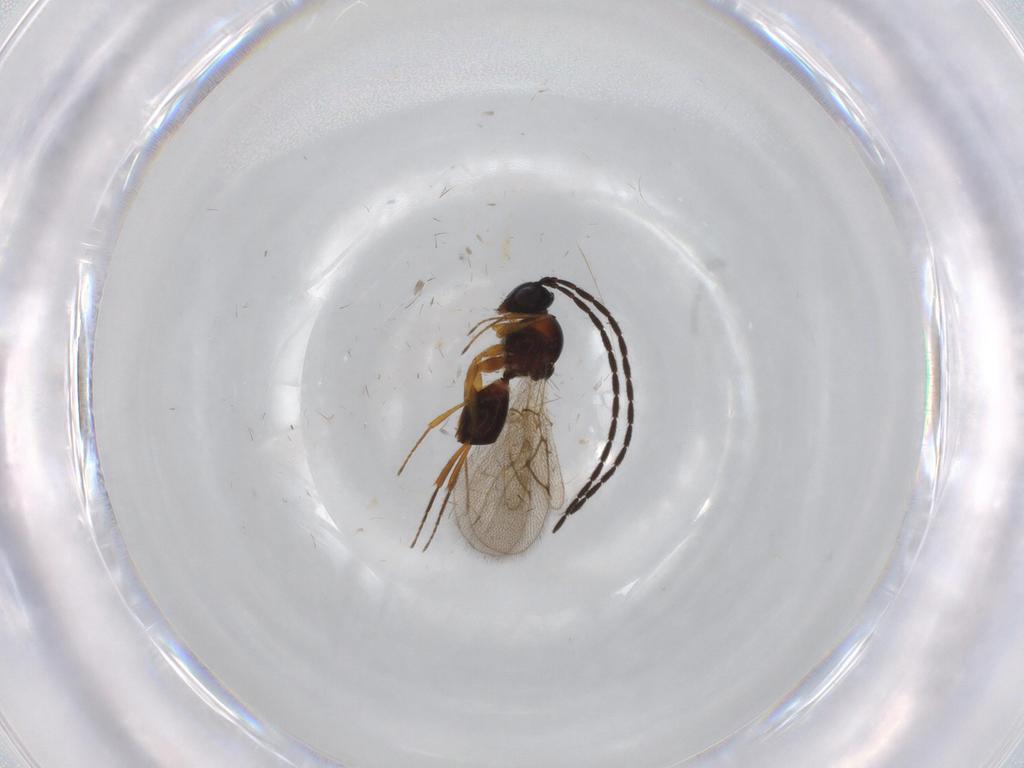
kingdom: Animalia
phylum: Arthropoda
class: Insecta
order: Hymenoptera
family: Figitidae
